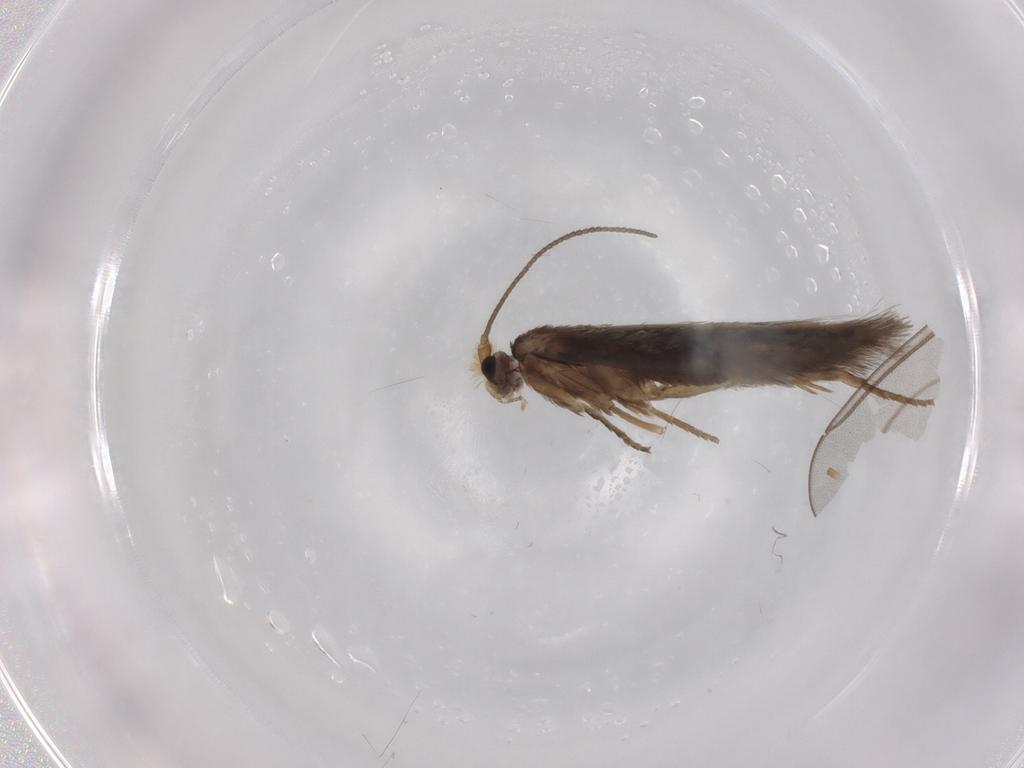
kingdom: Animalia
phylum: Arthropoda
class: Insecta
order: Lepidoptera
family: Nepticulidae
